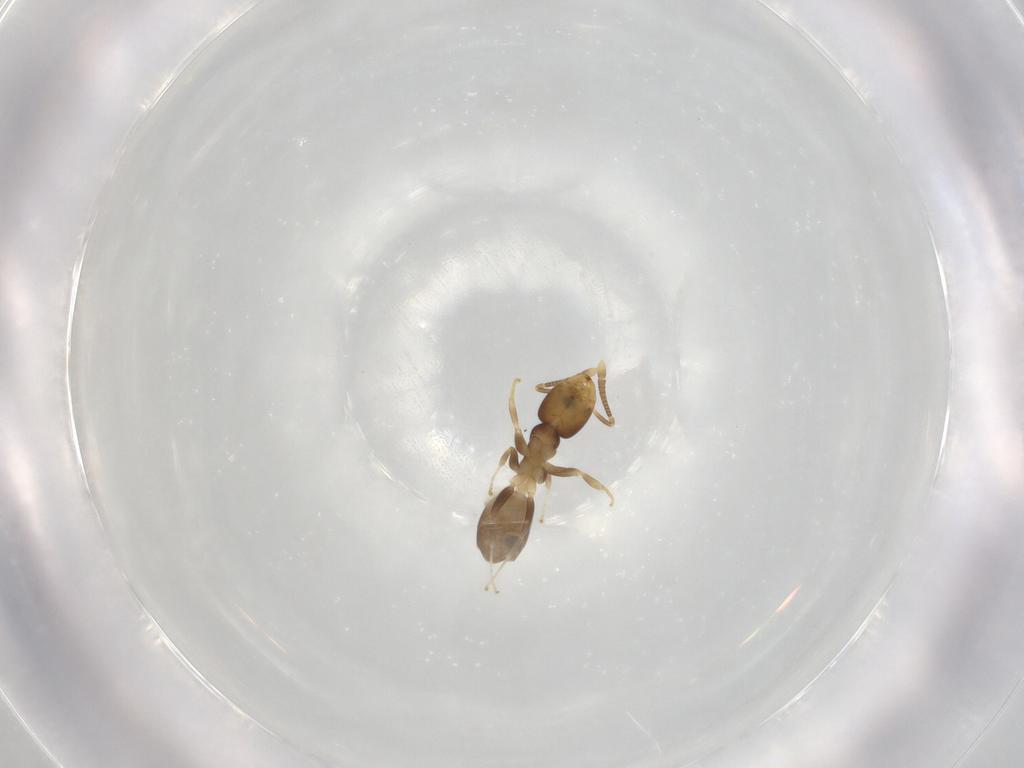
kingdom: Animalia
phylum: Arthropoda
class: Insecta
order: Hymenoptera
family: Formicidae
